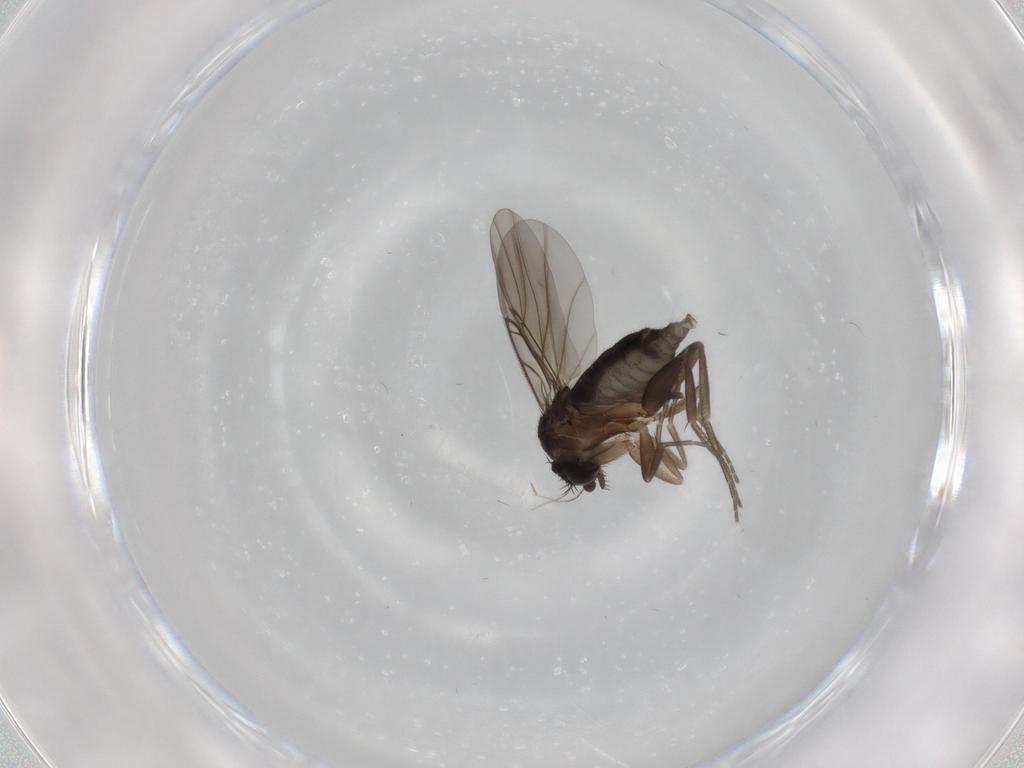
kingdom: Animalia
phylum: Arthropoda
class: Insecta
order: Diptera
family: Phoridae
